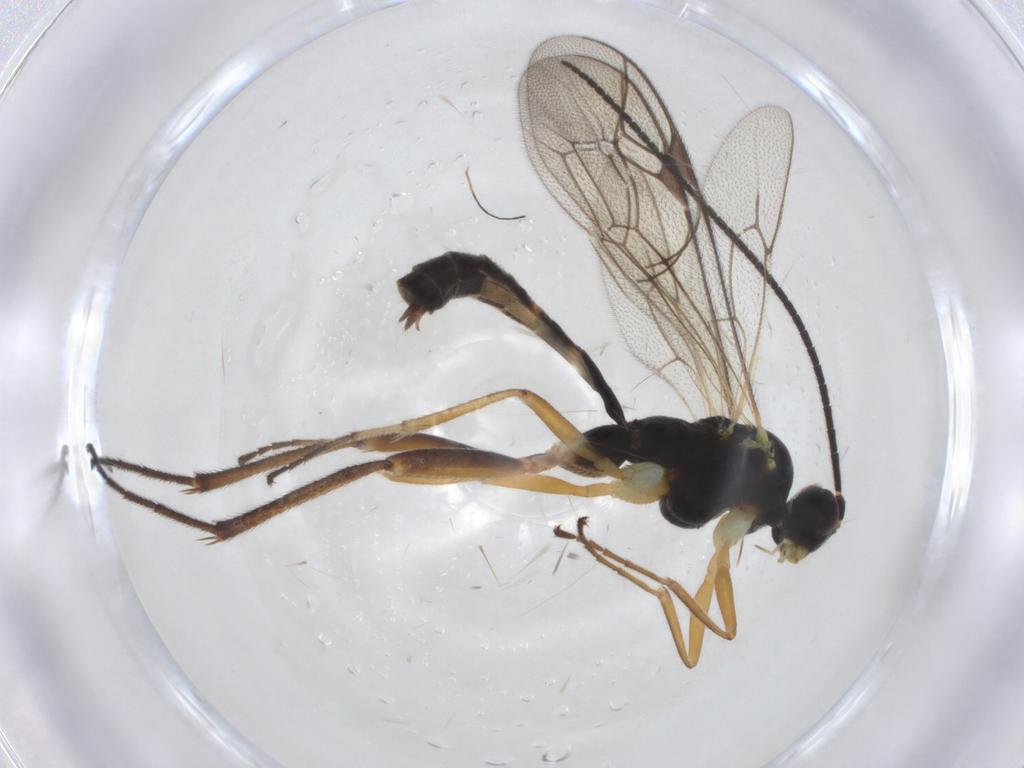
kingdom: Animalia
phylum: Arthropoda
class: Insecta
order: Hymenoptera
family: Ichneumonidae
